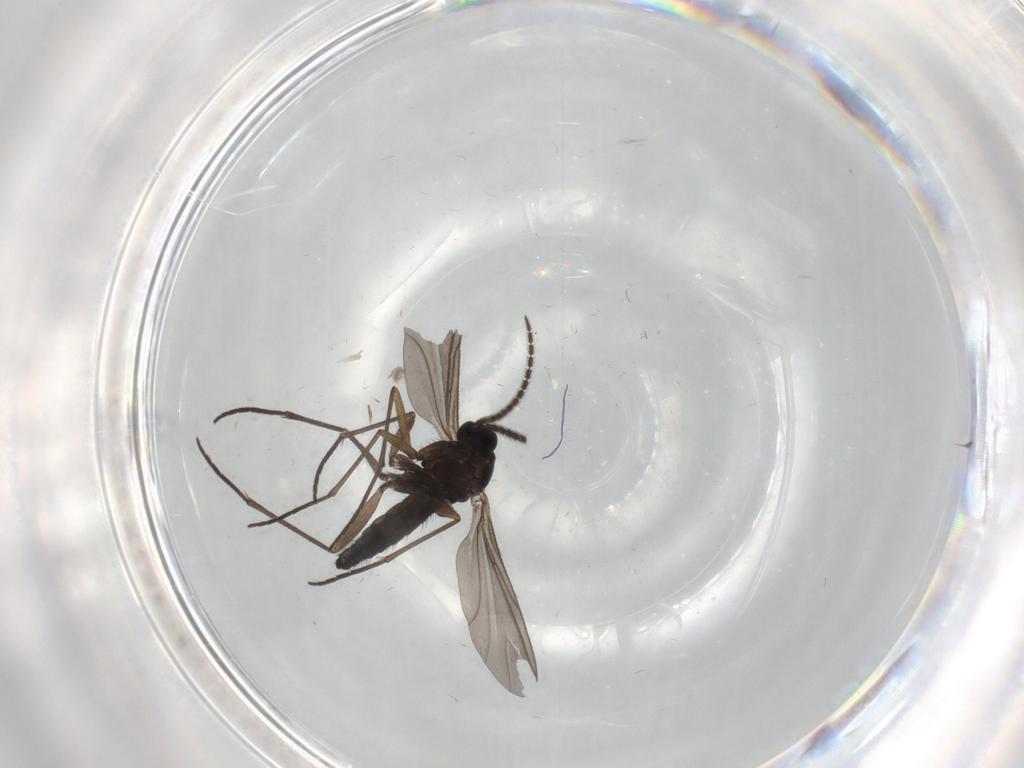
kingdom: Animalia
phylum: Arthropoda
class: Insecta
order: Diptera
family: Sciaridae
